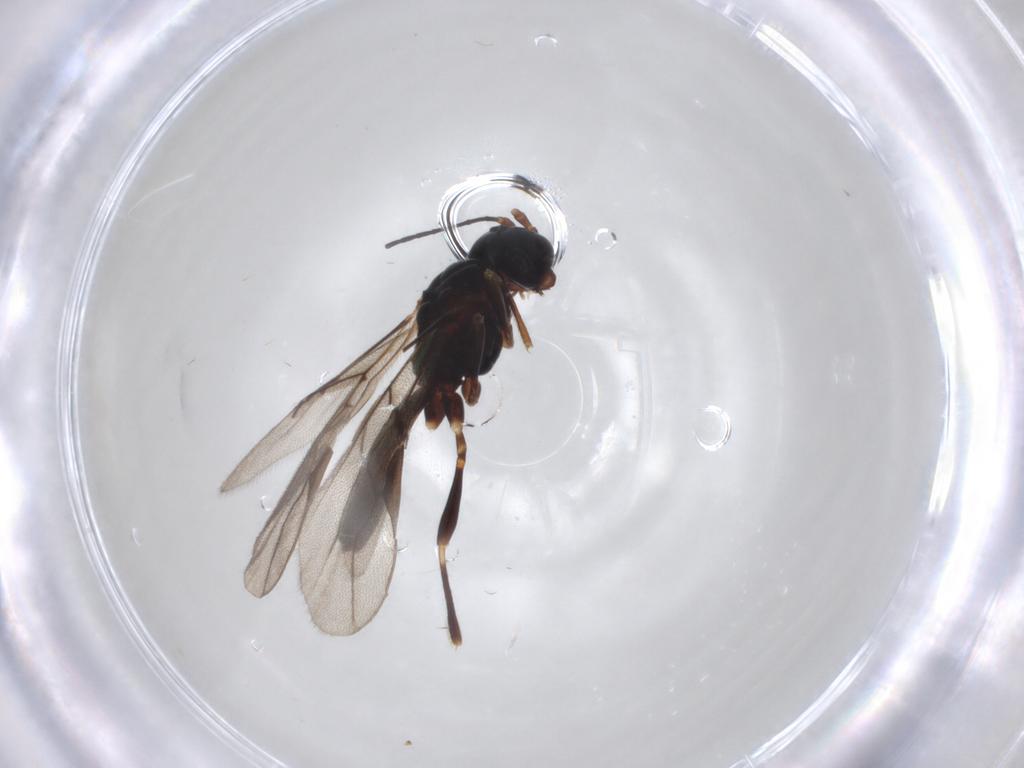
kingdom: Animalia
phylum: Arthropoda
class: Insecta
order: Hymenoptera
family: Braconidae
